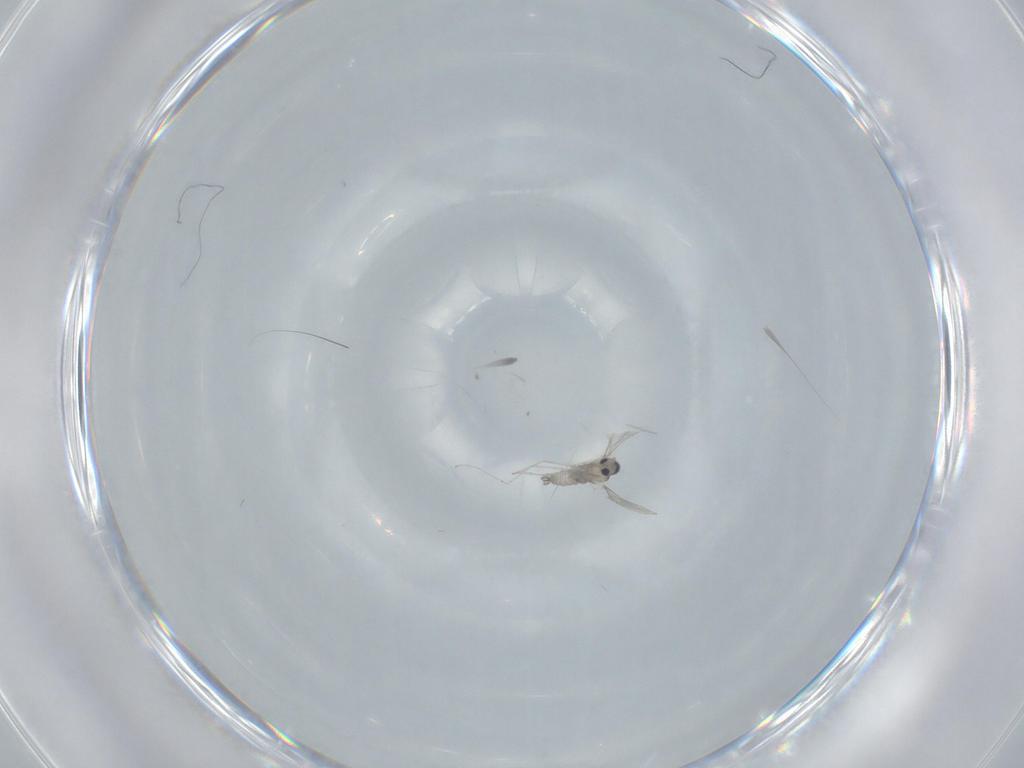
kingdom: Animalia
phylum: Arthropoda
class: Insecta
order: Diptera
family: Cecidomyiidae
